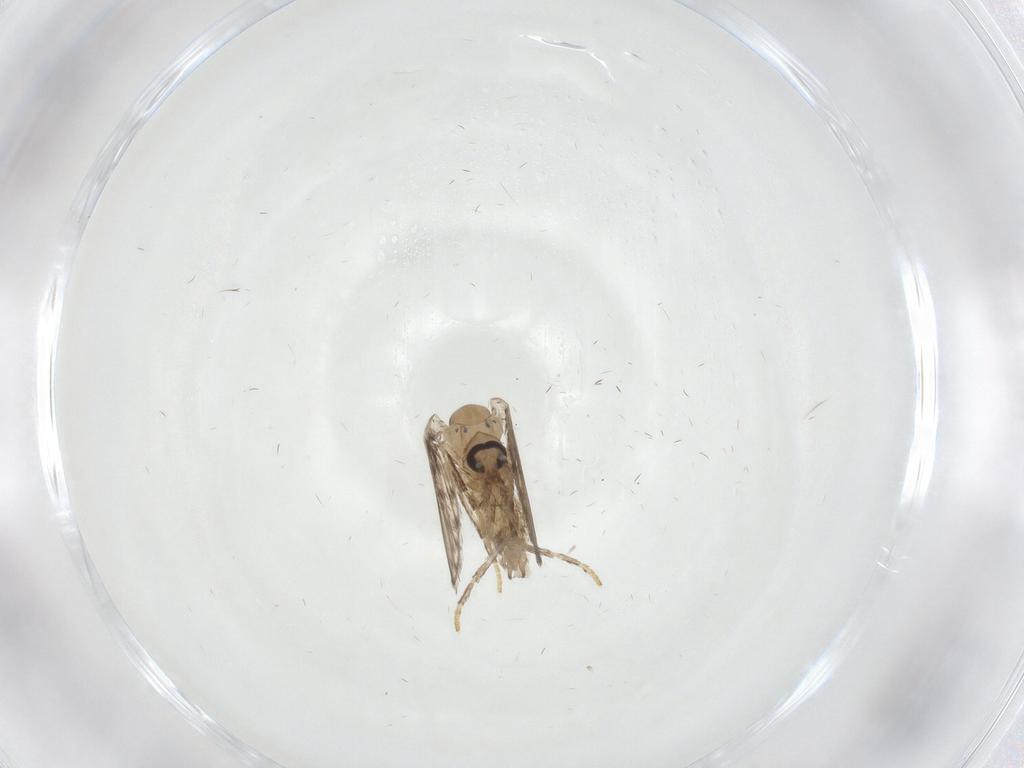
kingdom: Animalia
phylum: Arthropoda
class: Insecta
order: Diptera
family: Psychodidae
